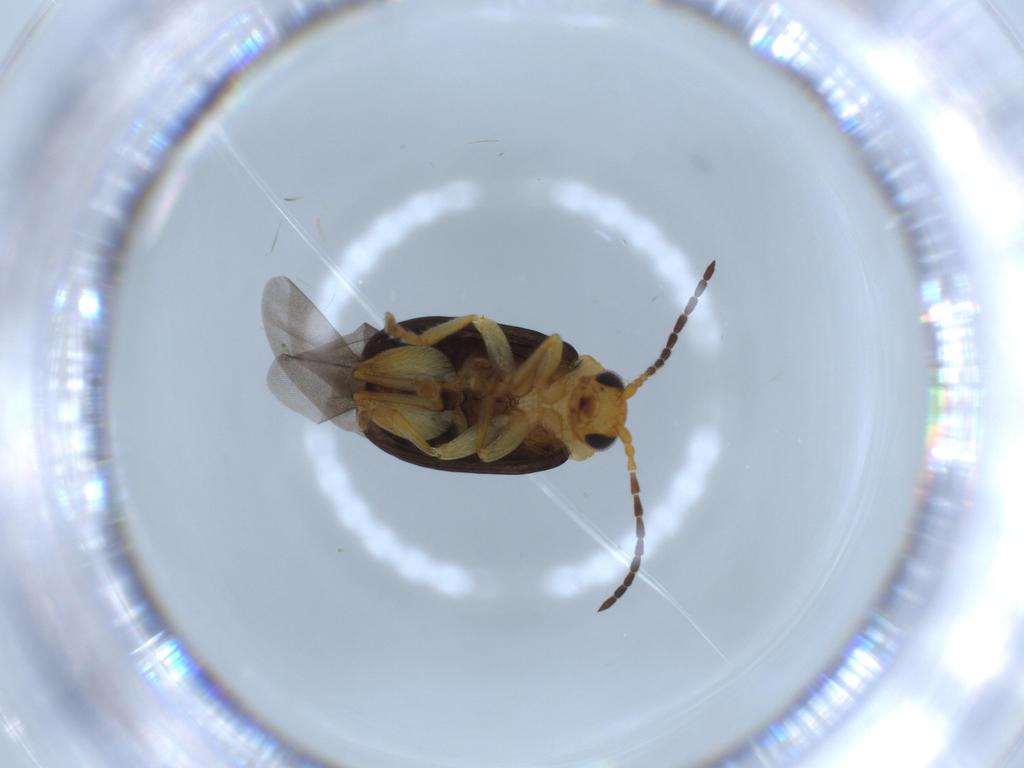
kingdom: Animalia
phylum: Arthropoda
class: Insecta
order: Coleoptera
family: Chrysomelidae
